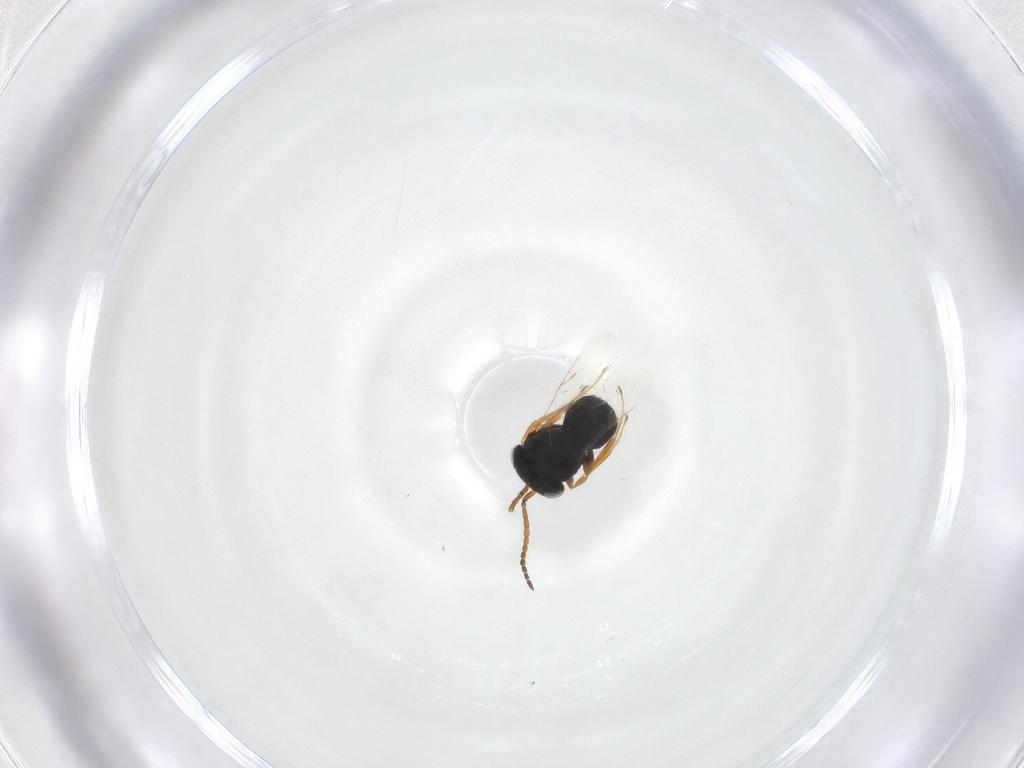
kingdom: Animalia
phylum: Arthropoda
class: Insecta
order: Hymenoptera
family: Scelionidae
